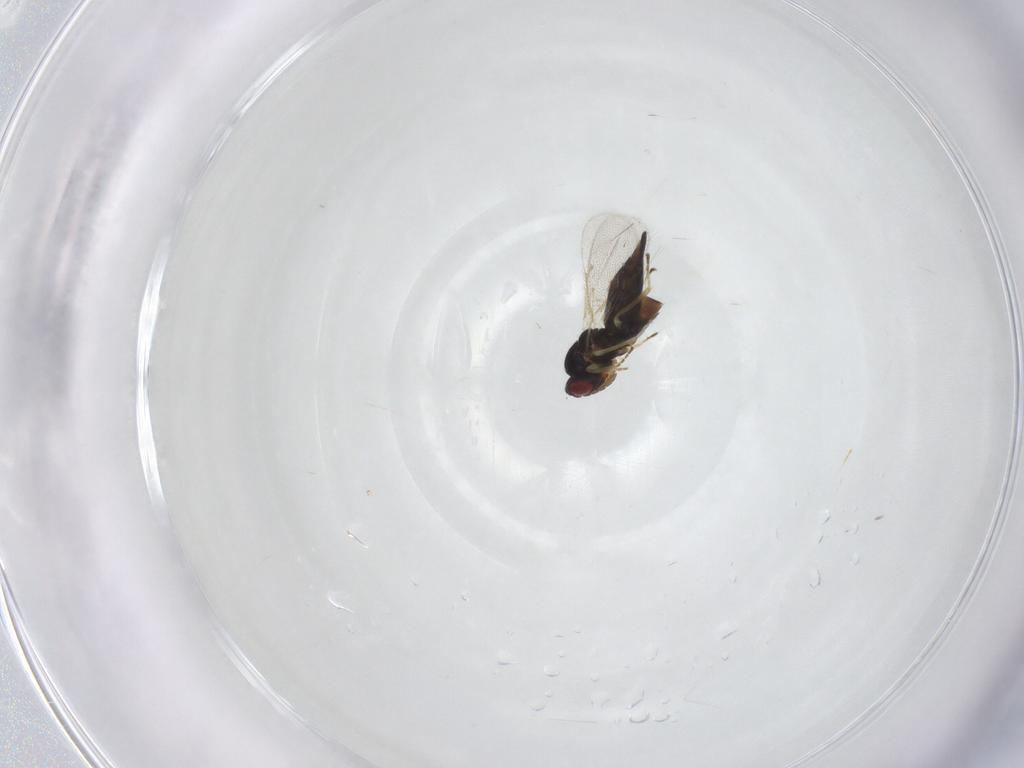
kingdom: Animalia
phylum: Arthropoda
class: Insecta
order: Hymenoptera
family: Eulophidae
